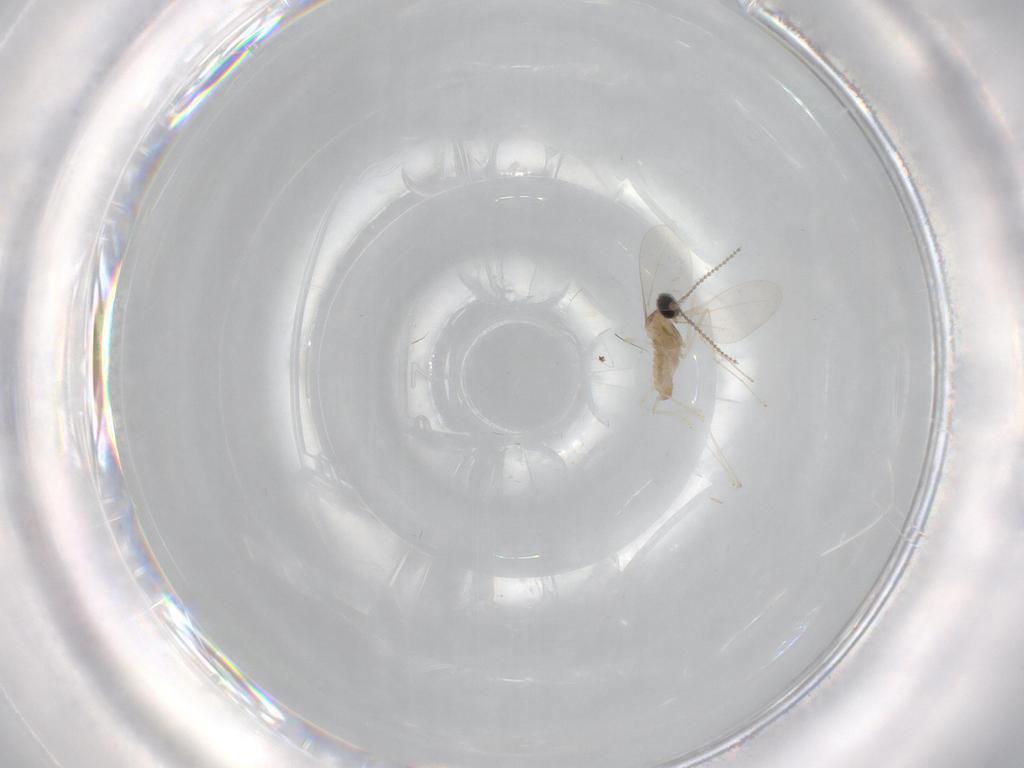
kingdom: Animalia
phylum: Arthropoda
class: Insecta
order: Diptera
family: Cecidomyiidae
